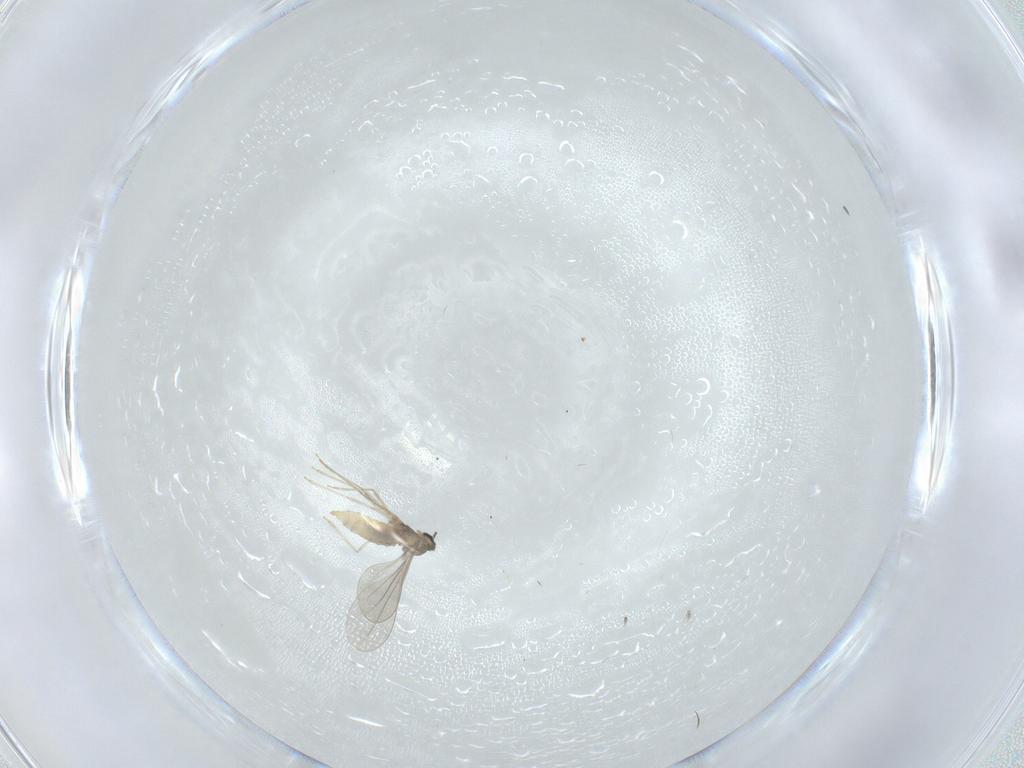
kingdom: Animalia
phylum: Arthropoda
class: Insecta
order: Diptera
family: Cecidomyiidae
